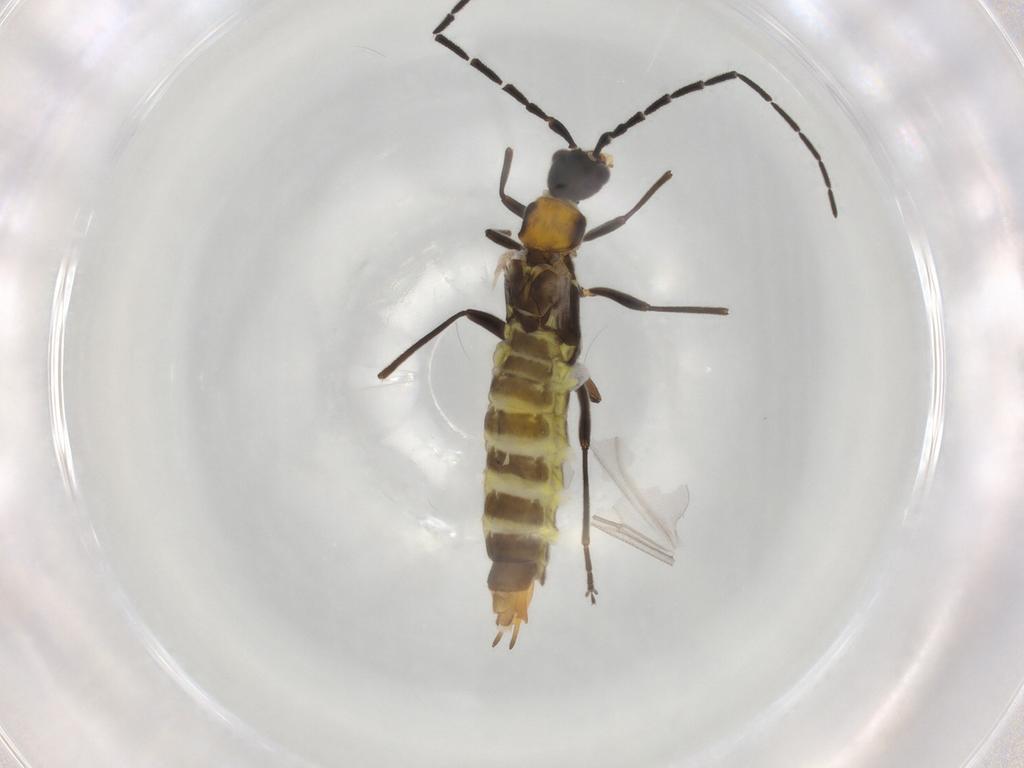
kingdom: Animalia
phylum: Arthropoda
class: Insecta
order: Coleoptera
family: Cantharidae
